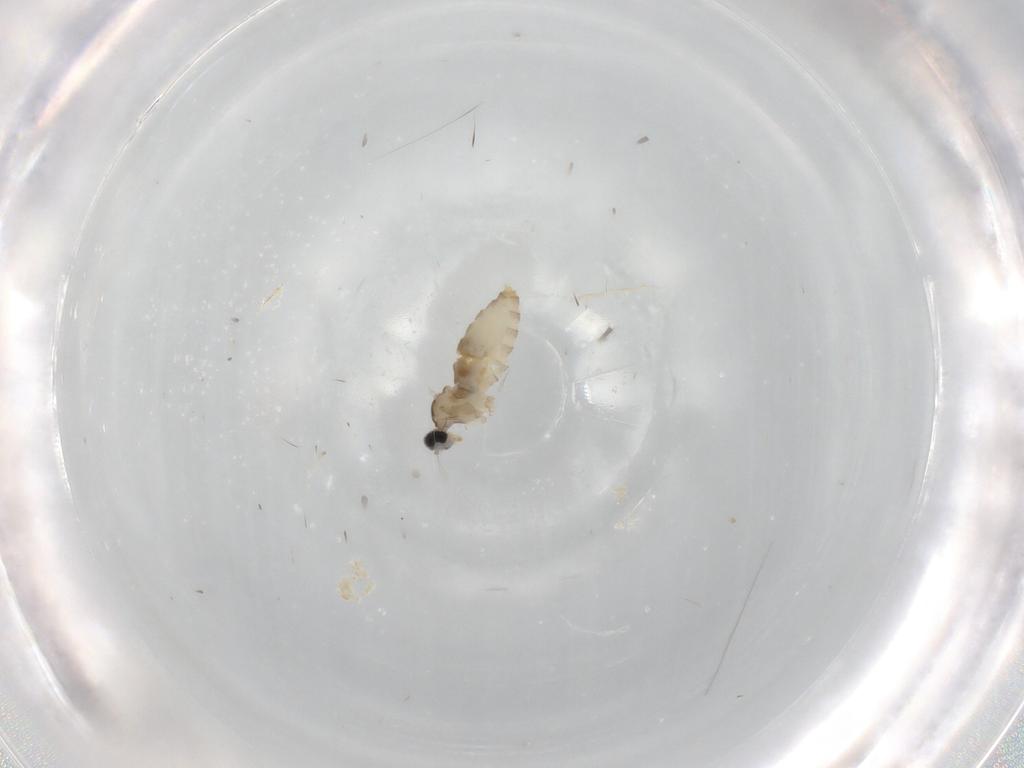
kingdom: Animalia
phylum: Arthropoda
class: Insecta
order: Diptera
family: Cecidomyiidae
